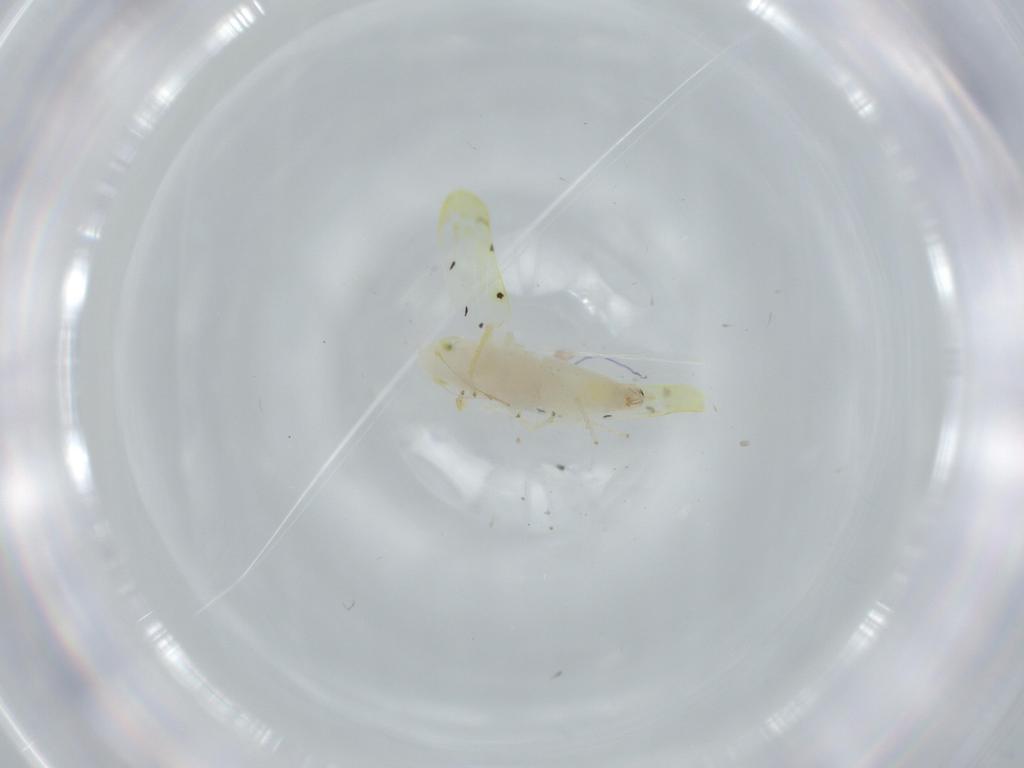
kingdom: Animalia
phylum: Arthropoda
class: Insecta
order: Hemiptera
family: Cicadellidae
